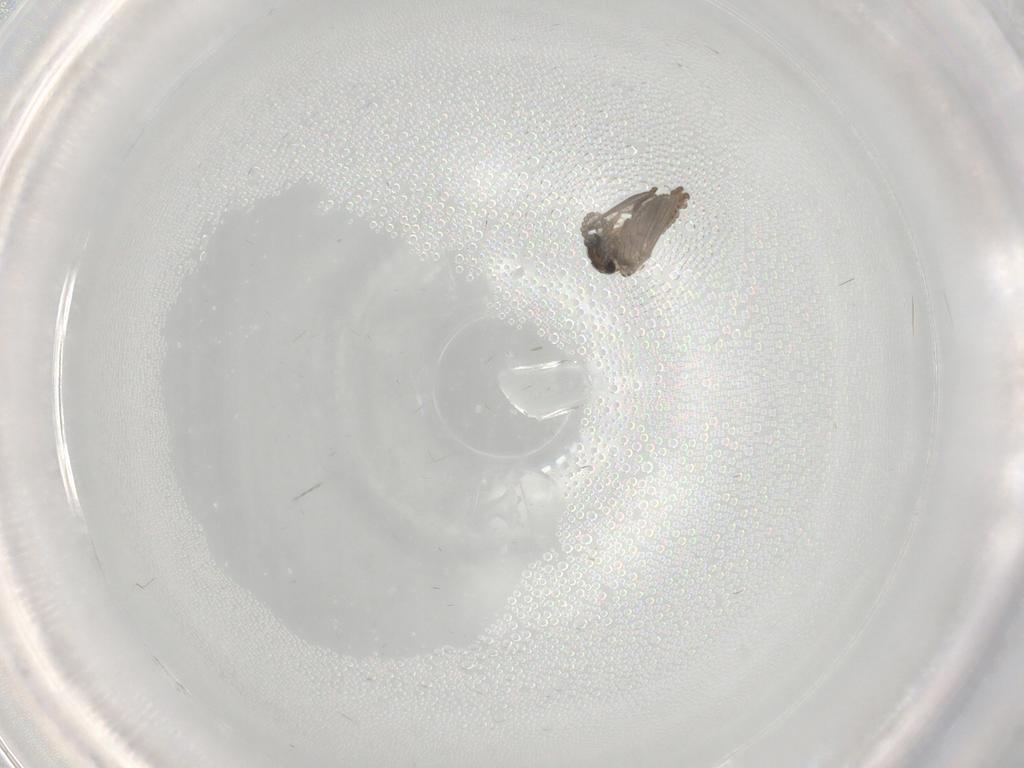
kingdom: Animalia
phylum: Arthropoda
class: Insecta
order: Diptera
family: Psychodidae
